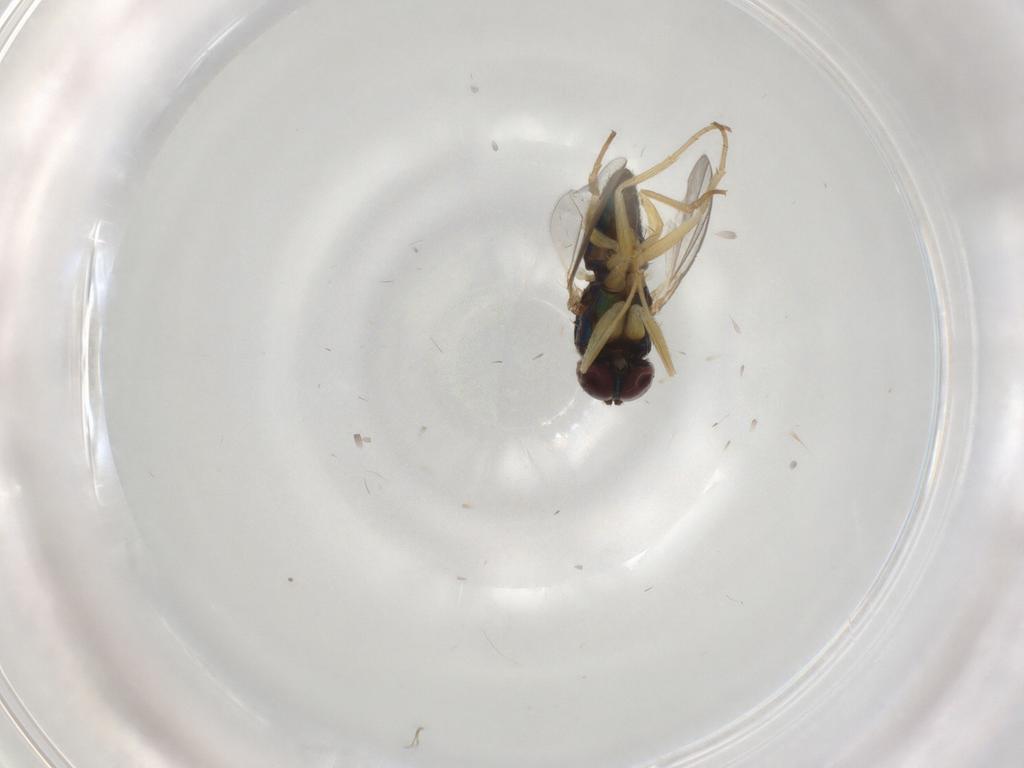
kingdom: Animalia
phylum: Arthropoda
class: Insecta
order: Diptera
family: Dolichopodidae
